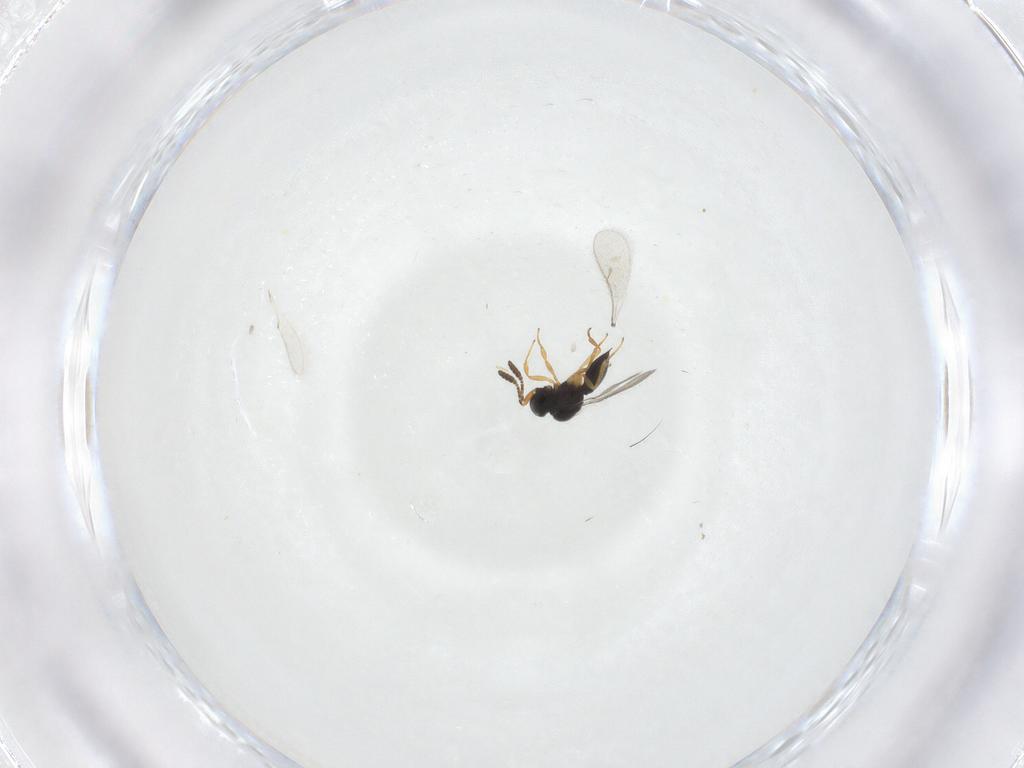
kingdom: Animalia
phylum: Arthropoda
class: Insecta
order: Hymenoptera
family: Scelionidae
